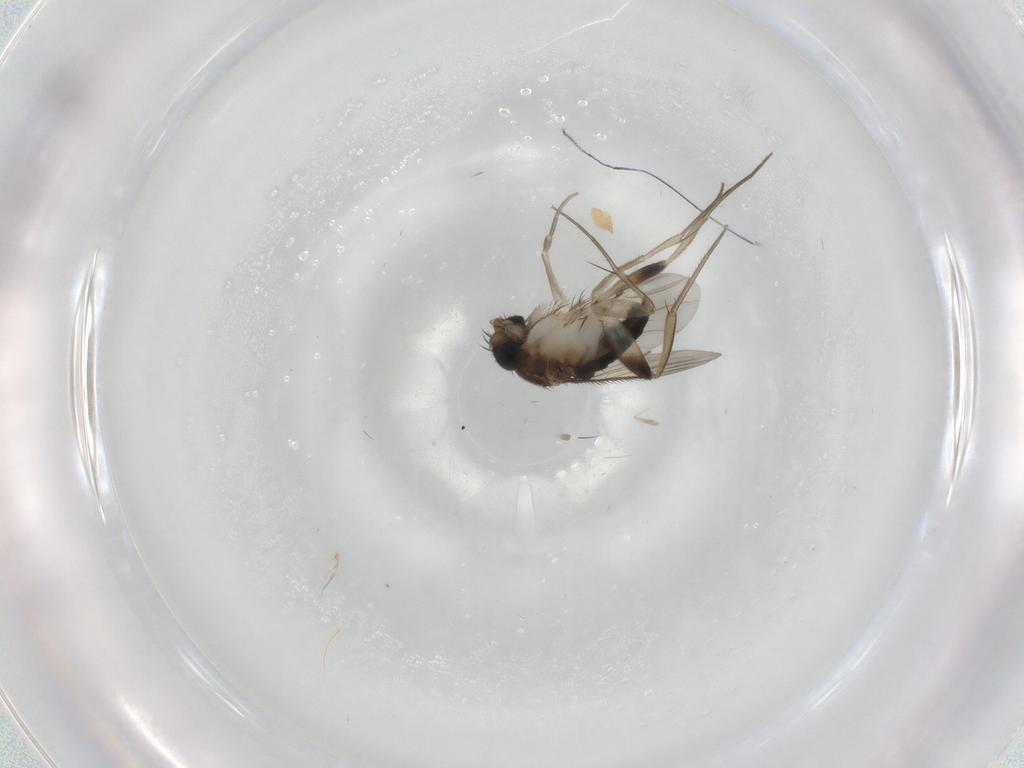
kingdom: Animalia
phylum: Arthropoda
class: Insecta
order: Diptera
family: Phoridae
